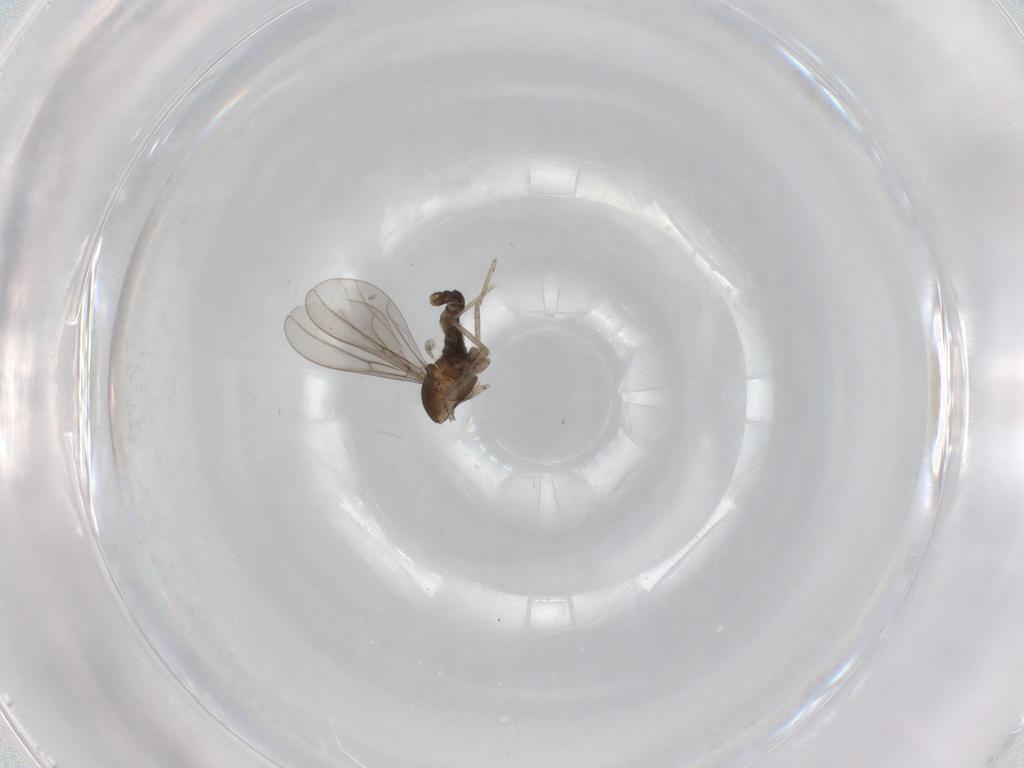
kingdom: Animalia
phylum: Arthropoda
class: Insecta
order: Diptera
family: Cecidomyiidae
